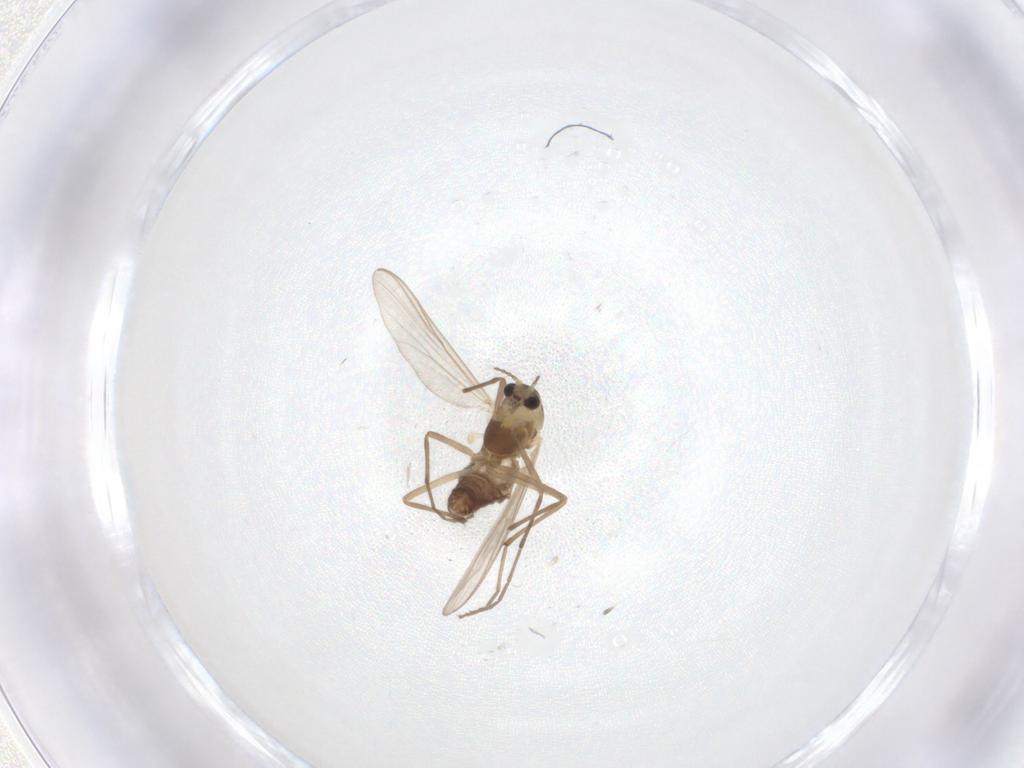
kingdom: Animalia
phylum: Arthropoda
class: Insecta
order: Diptera
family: Chironomidae
